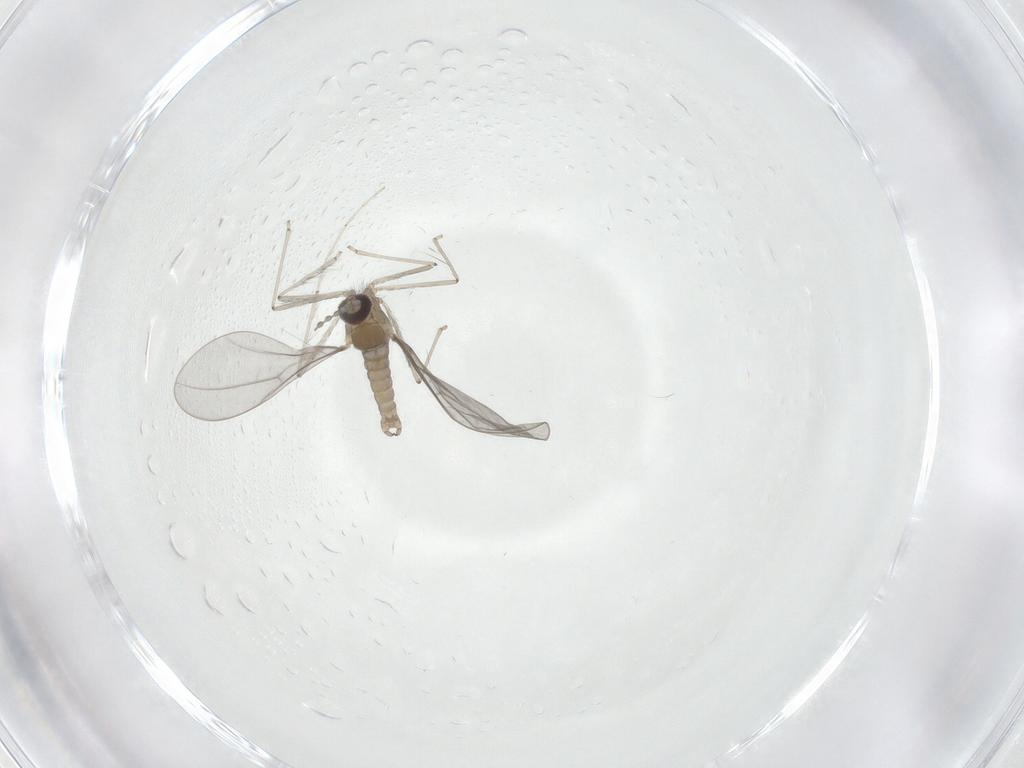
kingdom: Animalia
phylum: Arthropoda
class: Insecta
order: Diptera
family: Cecidomyiidae
